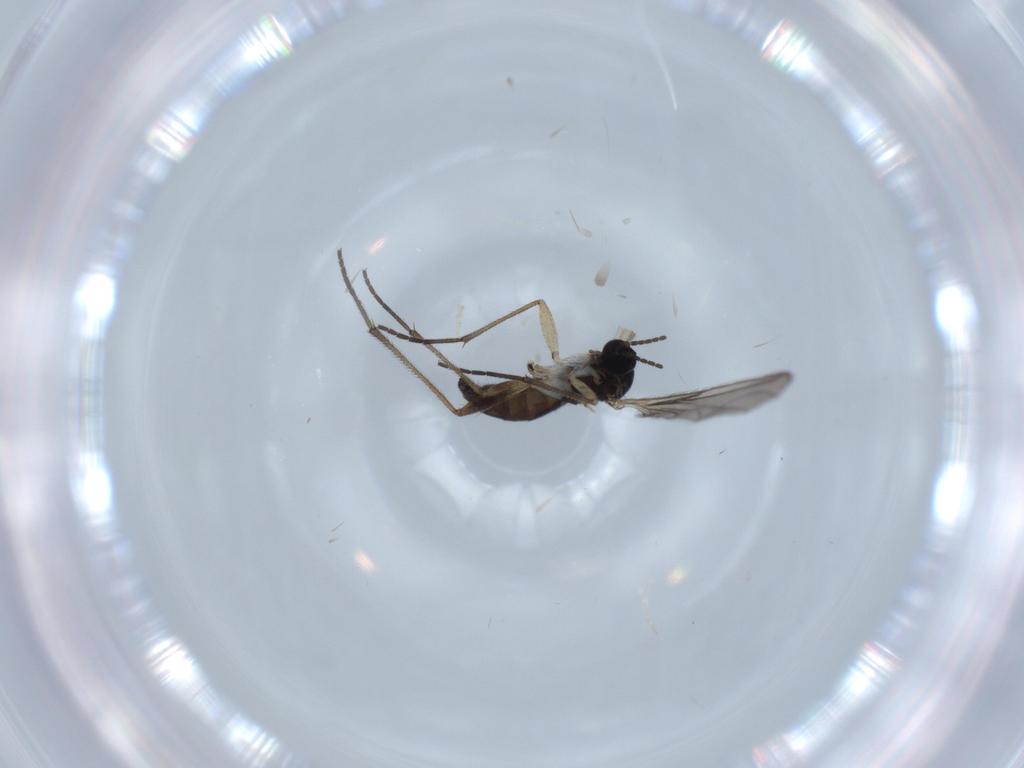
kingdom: Animalia
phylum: Arthropoda
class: Insecta
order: Diptera
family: Sciaridae
